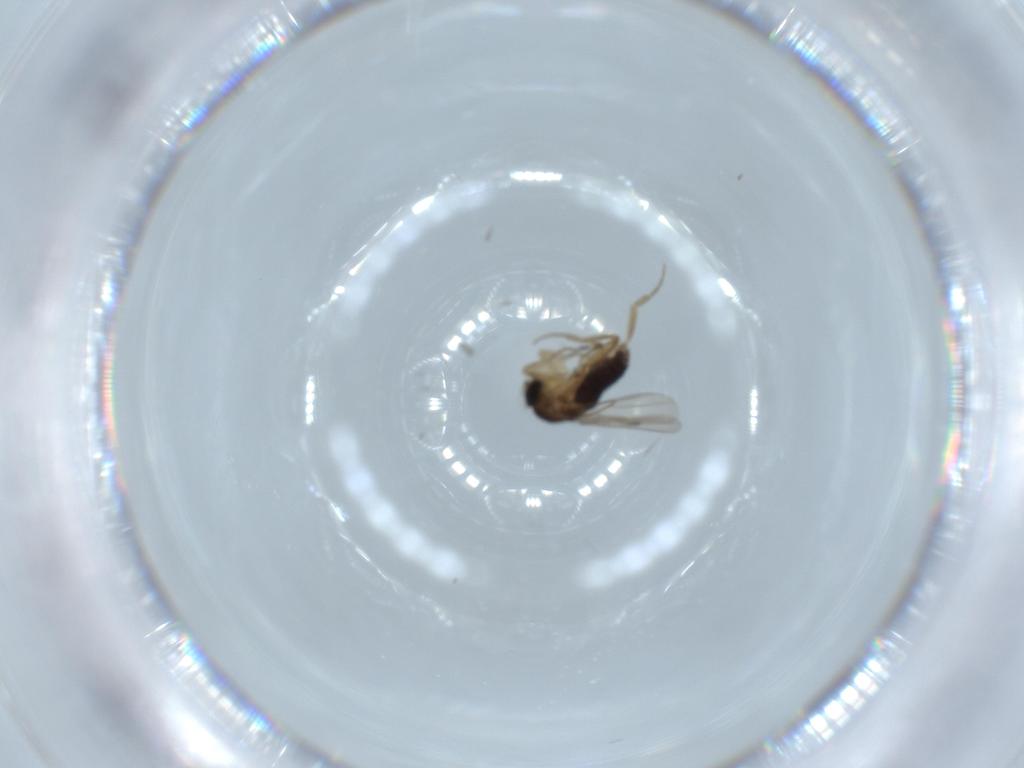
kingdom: Animalia
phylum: Arthropoda
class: Insecta
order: Diptera
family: Phoridae
